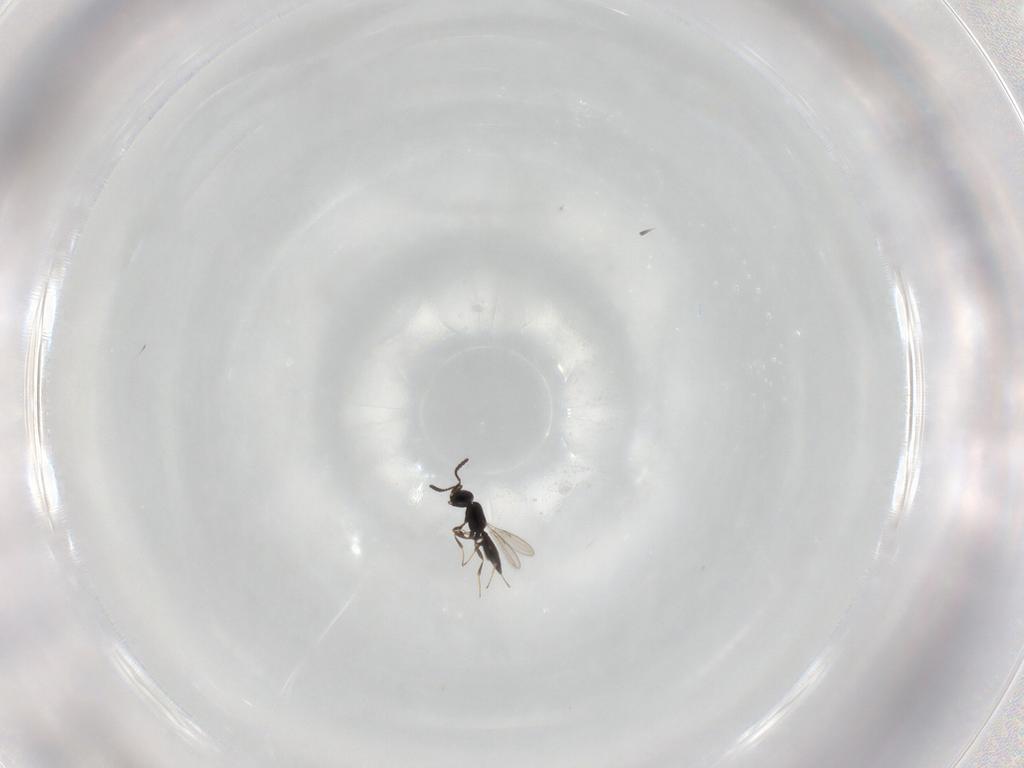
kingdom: Animalia
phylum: Arthropoda
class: Insecta
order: Hymenoptera
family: Scelionidae
